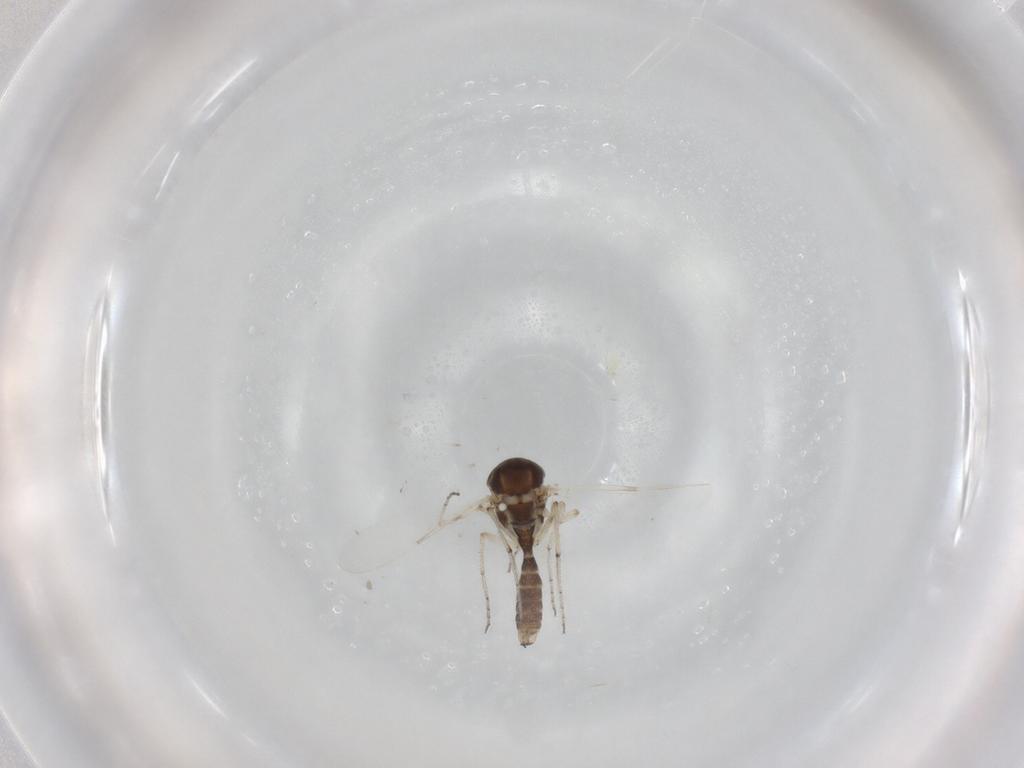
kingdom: Animalia
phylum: Arthropoda
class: Insecta
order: Diptera
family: Ceratopogonidae
